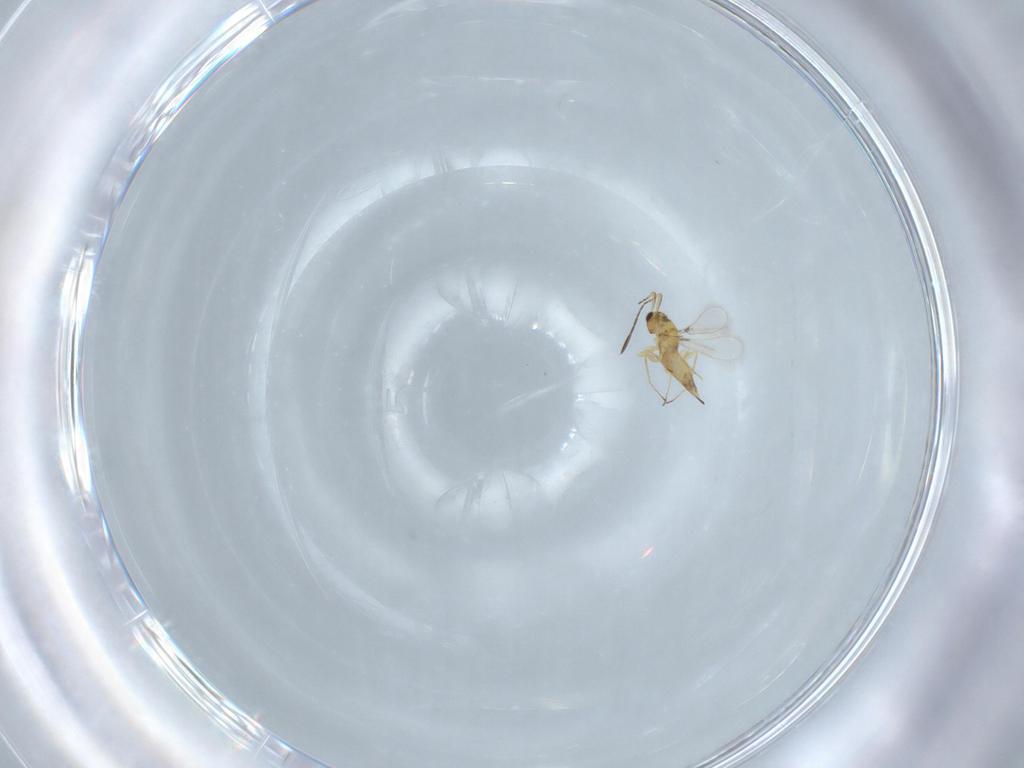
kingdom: Animalia
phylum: Arthropoda
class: Insecta
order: Hymenoptera
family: Mymaridae
